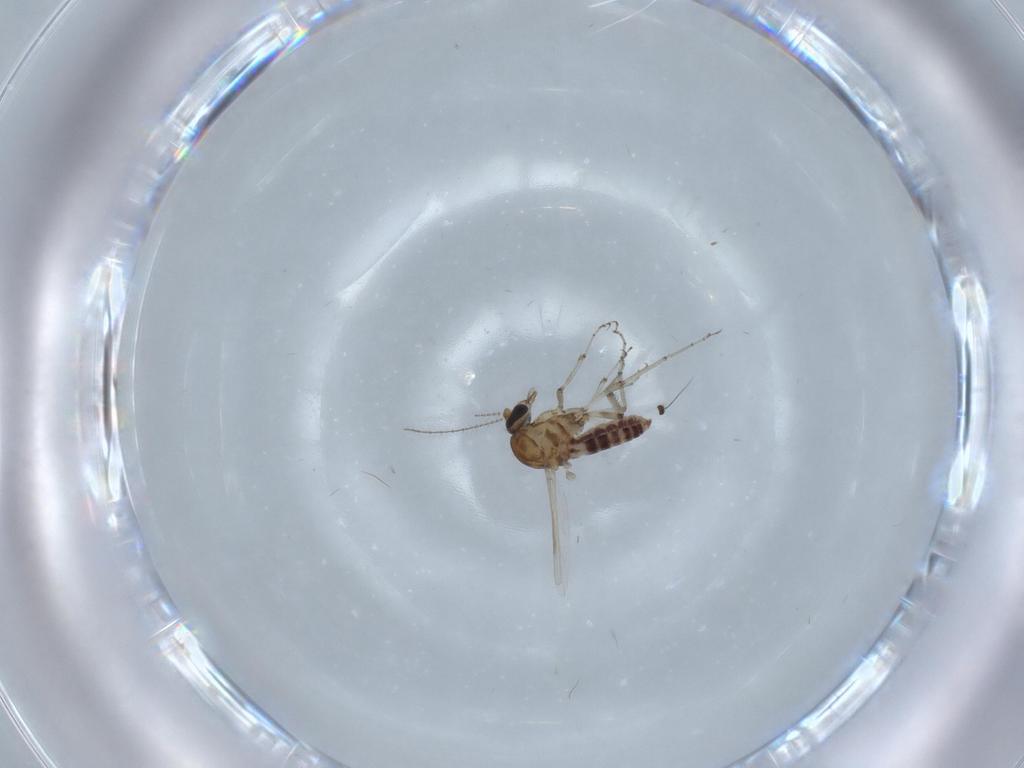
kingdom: Animalia
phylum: Arthropoda
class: Insecta
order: Diptera
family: Ceratopogonidae
